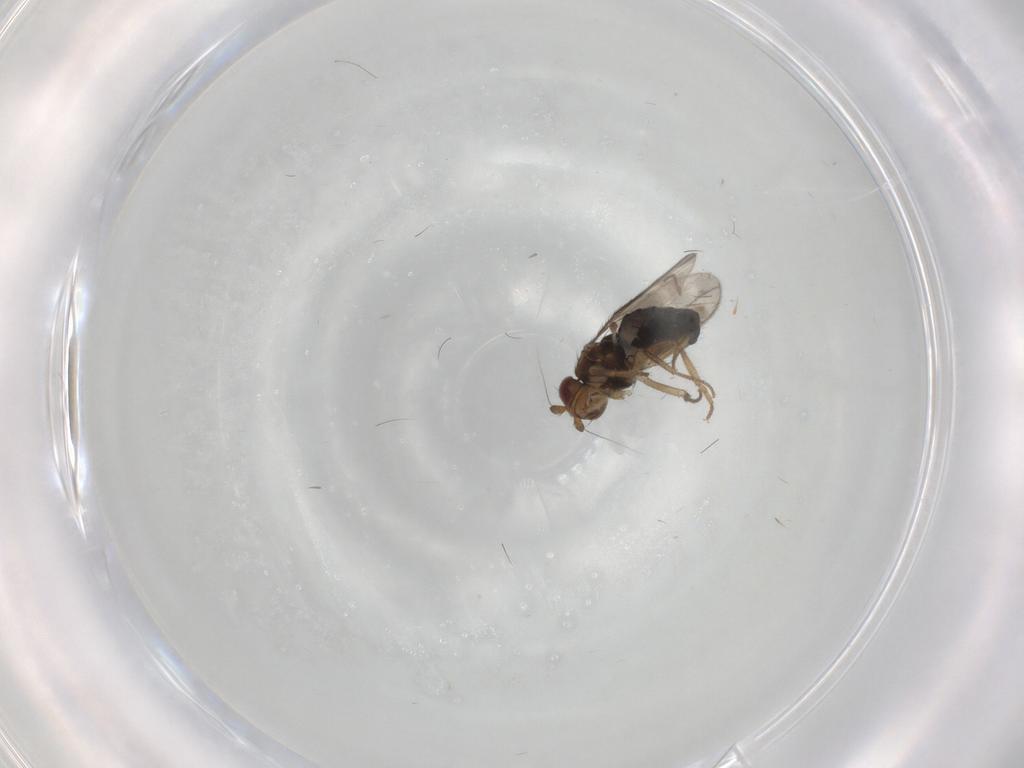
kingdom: Animalia
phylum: Arthropoda
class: Insecta
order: Diptera
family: Sphaeroceridae
